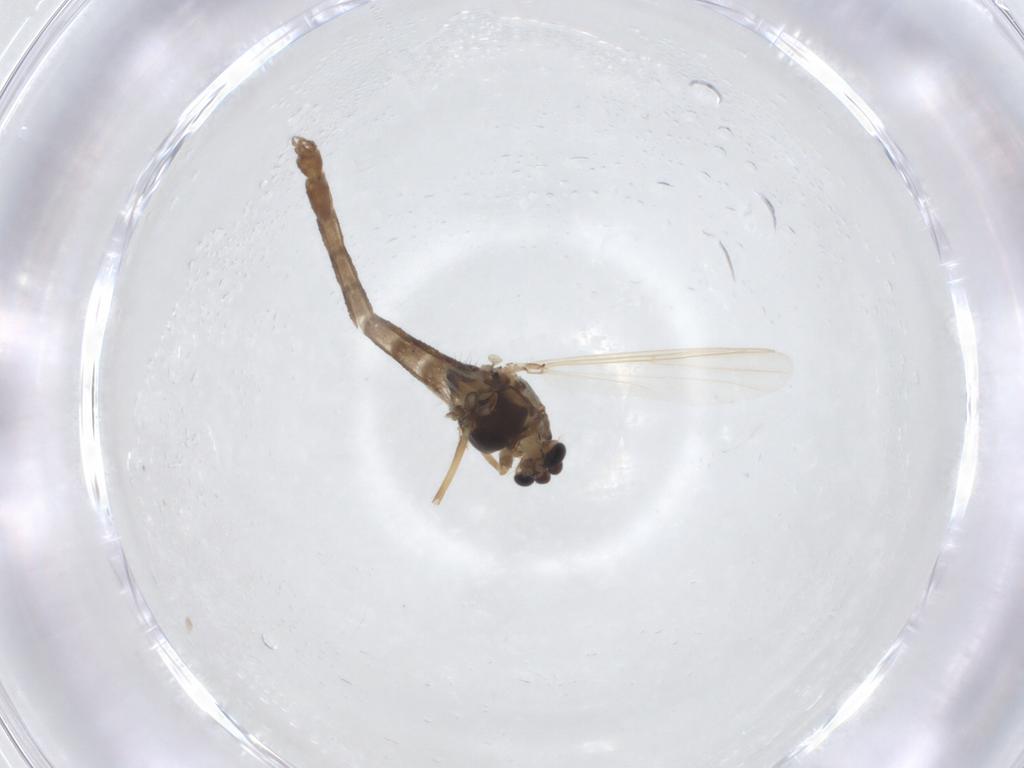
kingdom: Animalia
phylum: Arthropoda
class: Insecta
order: Diptera
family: Chironomidae
